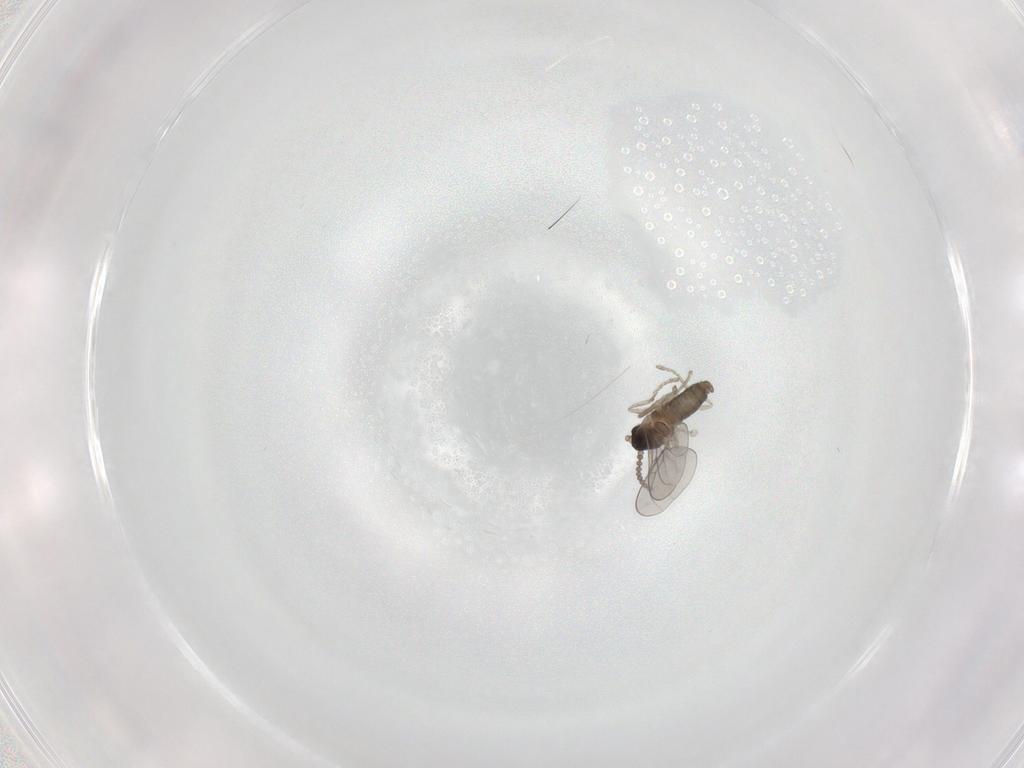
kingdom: Animalia
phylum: Arthropoda
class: Insecta
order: Diptera
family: Cecidomyiidae
